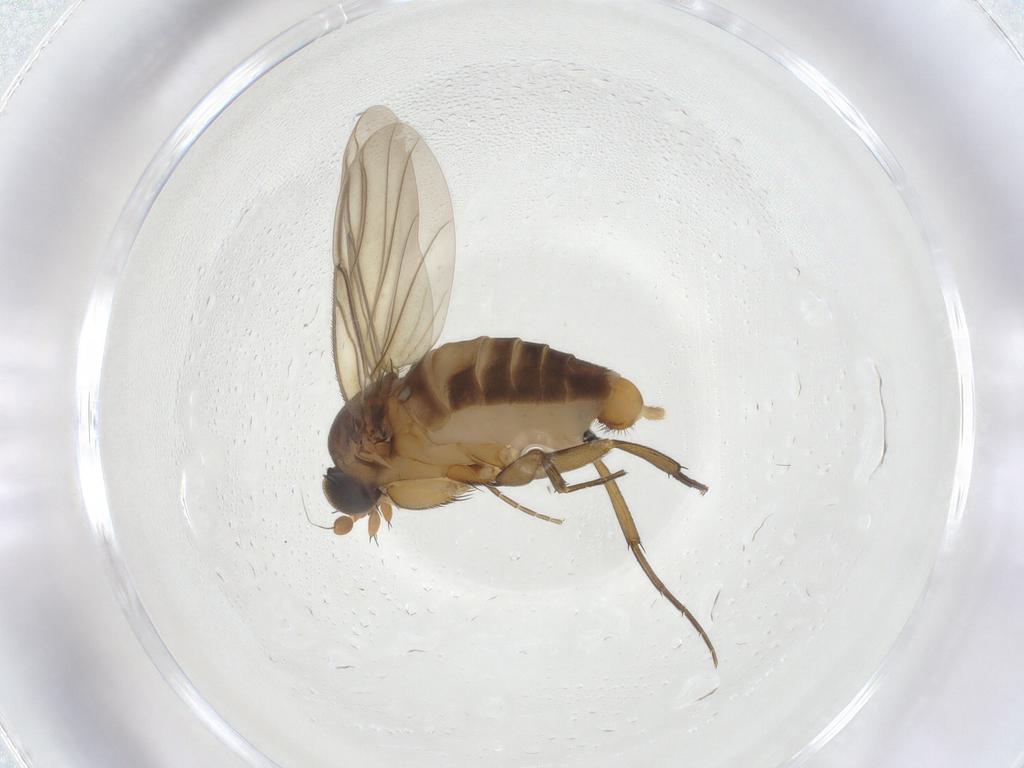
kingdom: Animalia
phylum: Arthropoda
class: Insecta
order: Diptera
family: Phoridae
